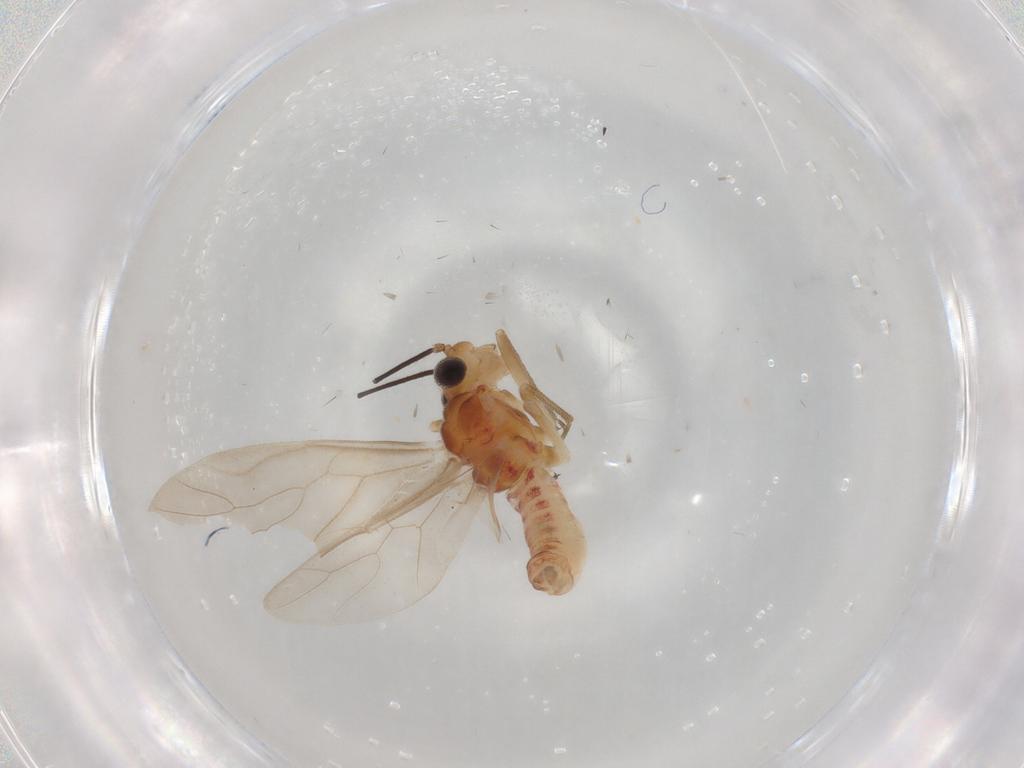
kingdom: Animalia
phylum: Arthropoda
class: Insecta
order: Psocodea
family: Caeciliusidae
